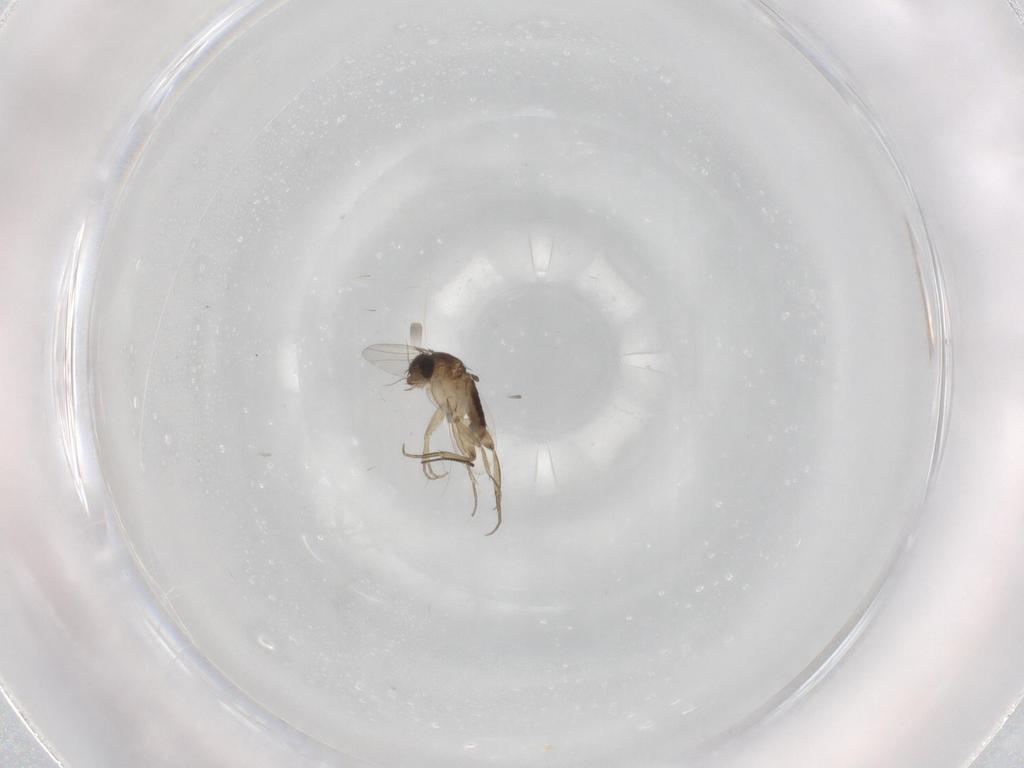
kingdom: Animalia
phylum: Arthropoda
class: Insecta
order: Diptera
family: Phoridae
